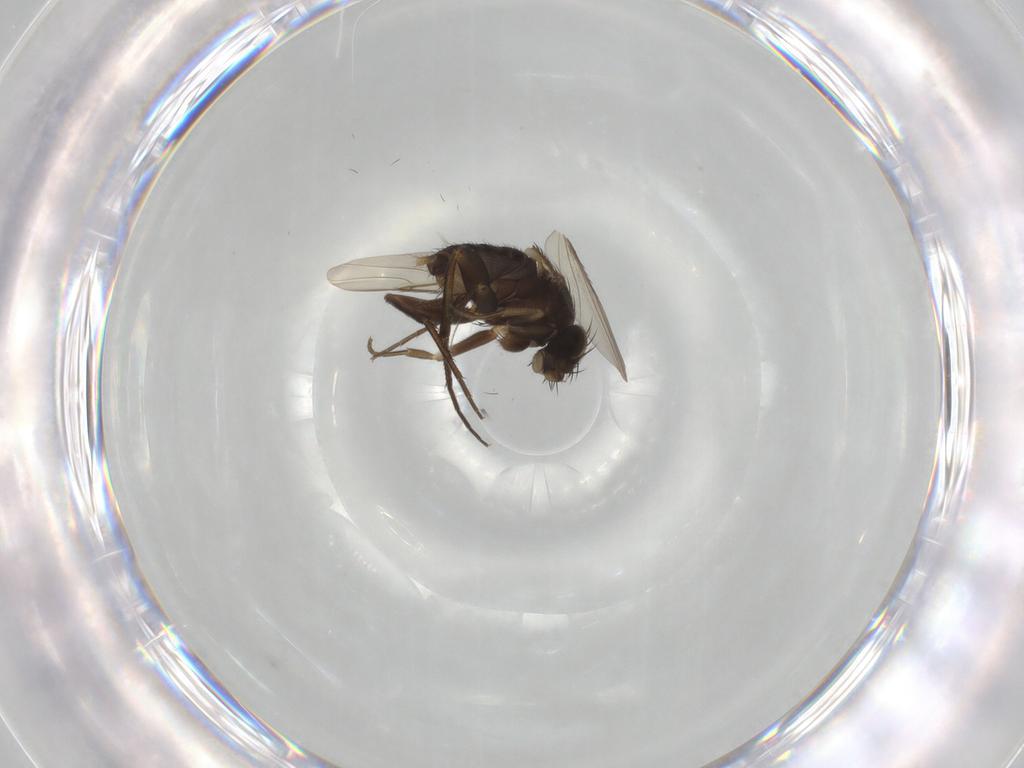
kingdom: Animalia
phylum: Arthropoda
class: Insecta
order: Diptera
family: Phoridae
